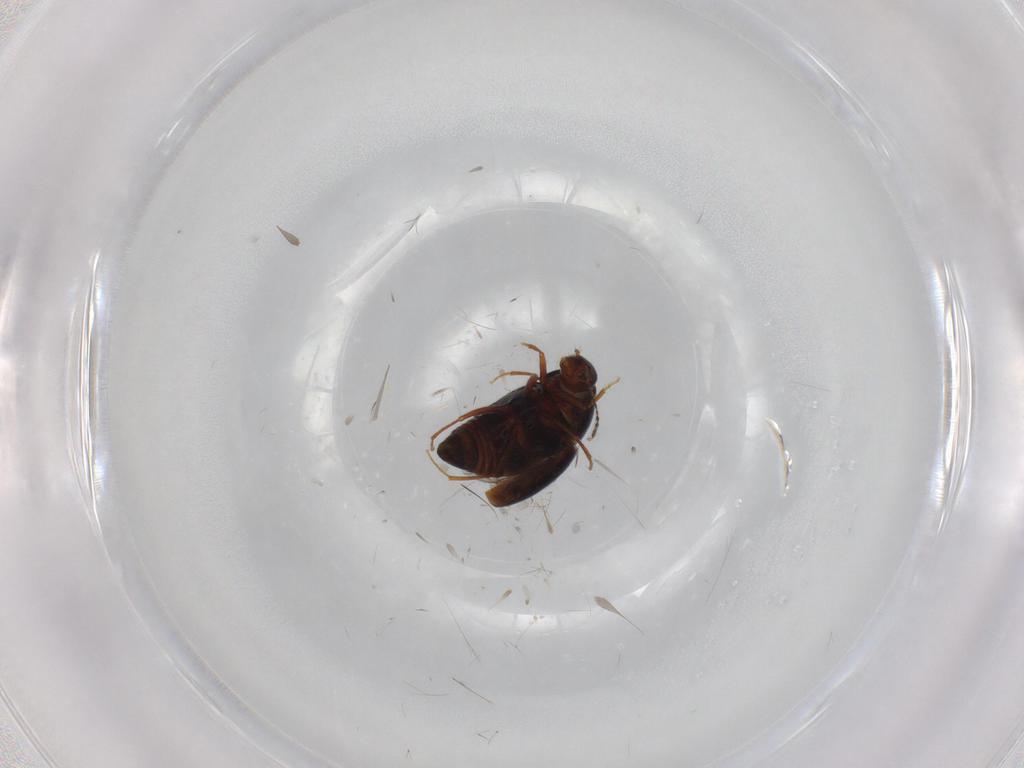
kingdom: Animalia
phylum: Arthropoda
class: Insecta
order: Coleoptera
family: Staphylinidae
